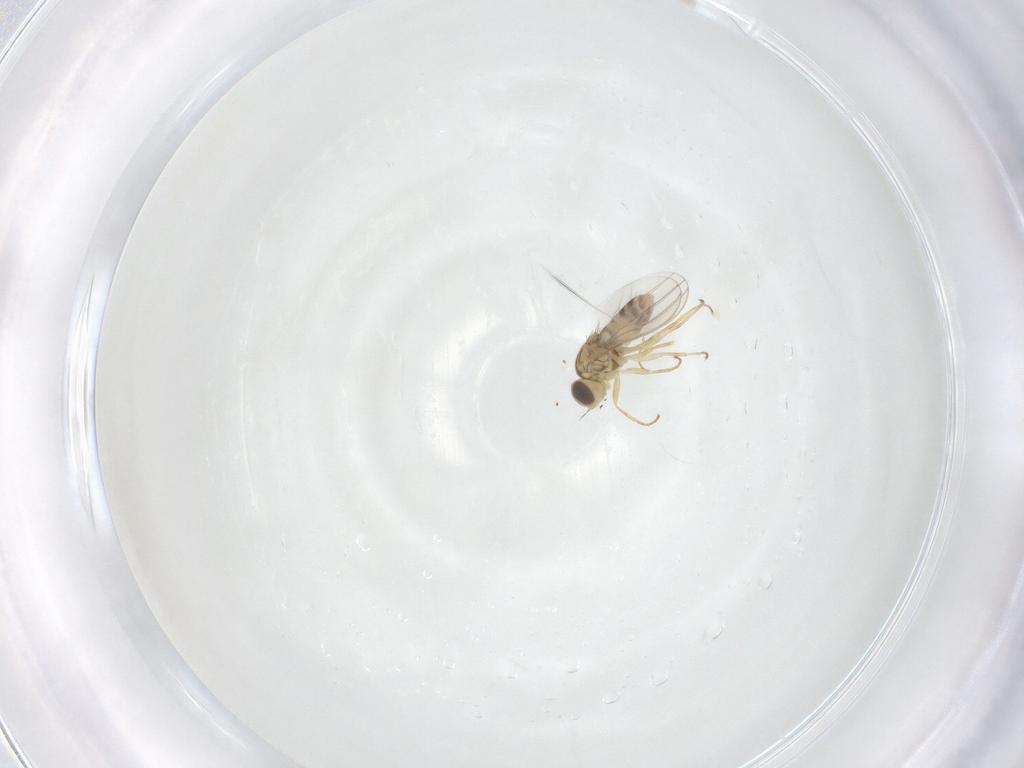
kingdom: Animalia
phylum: Arthropoda
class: Insecta
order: Diptera
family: Chyromyidae
